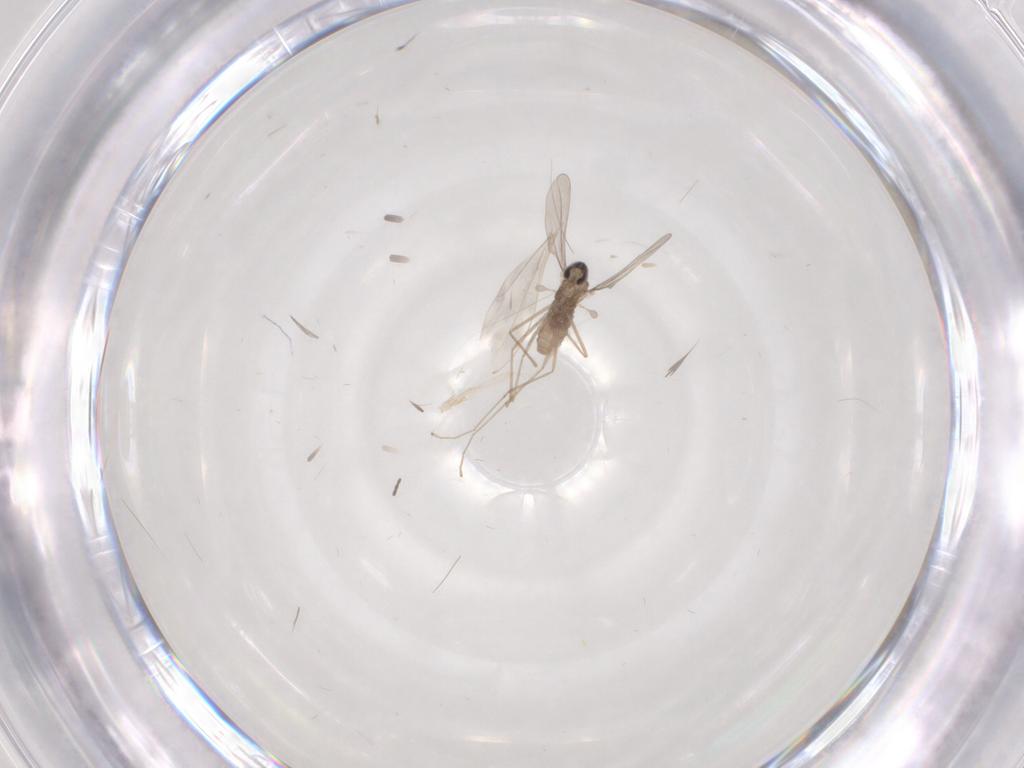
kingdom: Animalia
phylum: Arthropoda
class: Insecta
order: Diptera
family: Cecidomyiidae
